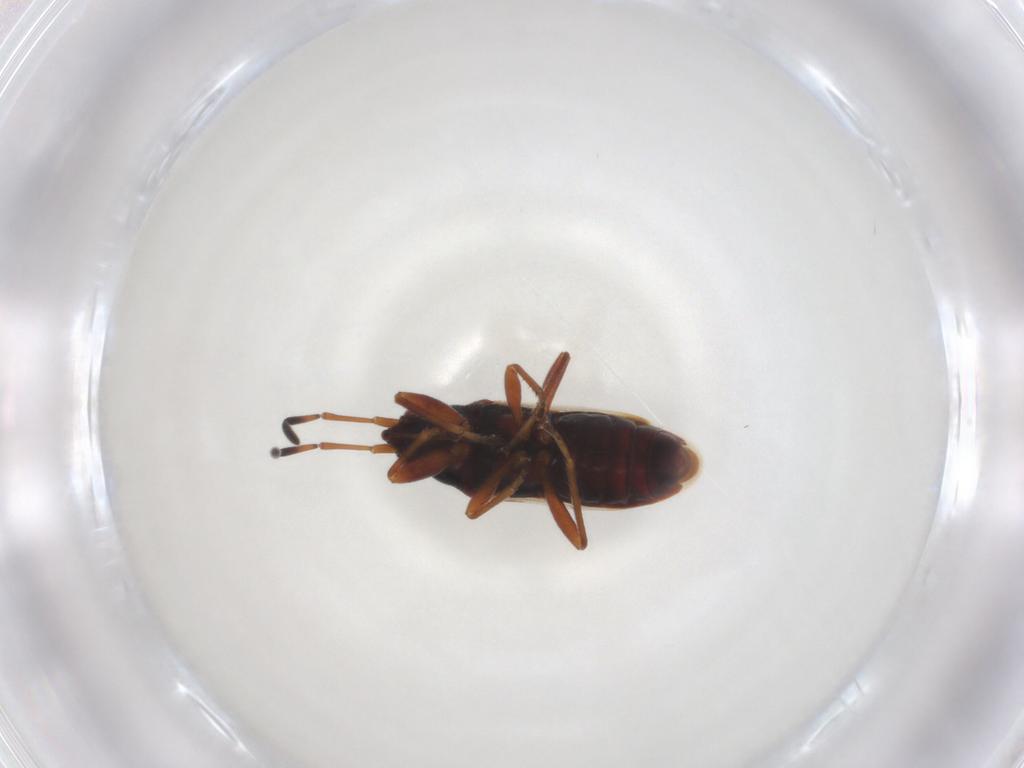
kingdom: Animalia
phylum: Arthropoda
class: Insecta
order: Hemiptera
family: Rhyparochromidae
